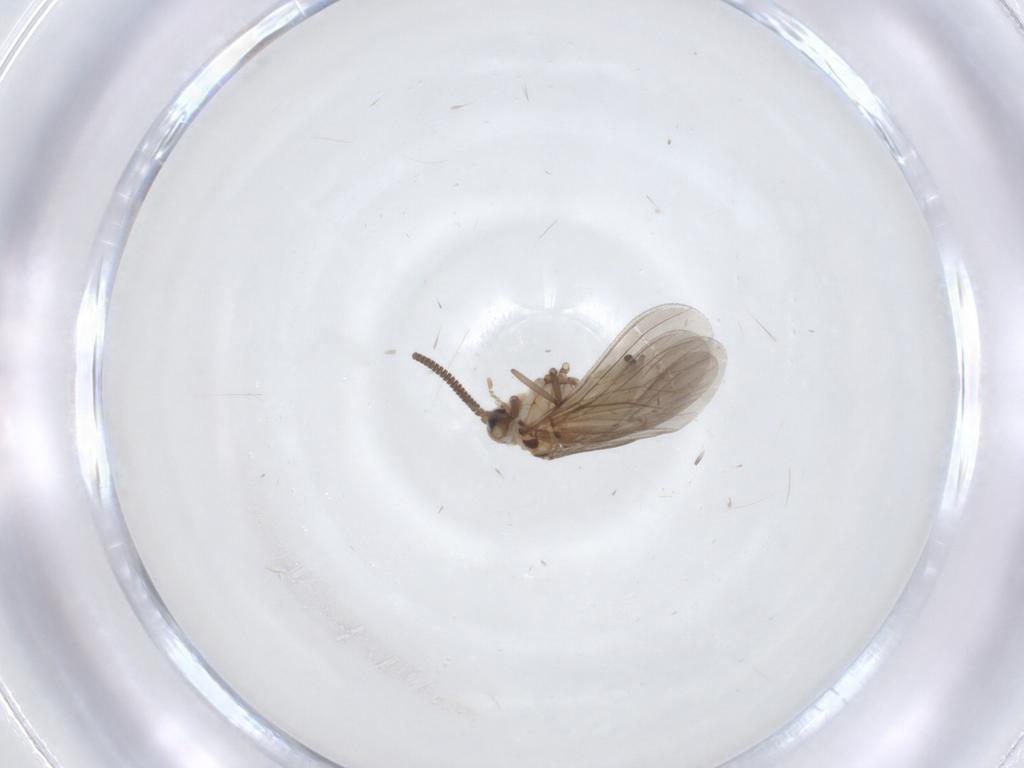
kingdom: Animalia
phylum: Arthropoda
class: Insecta
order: Neuroptera
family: Coniopterygidae
